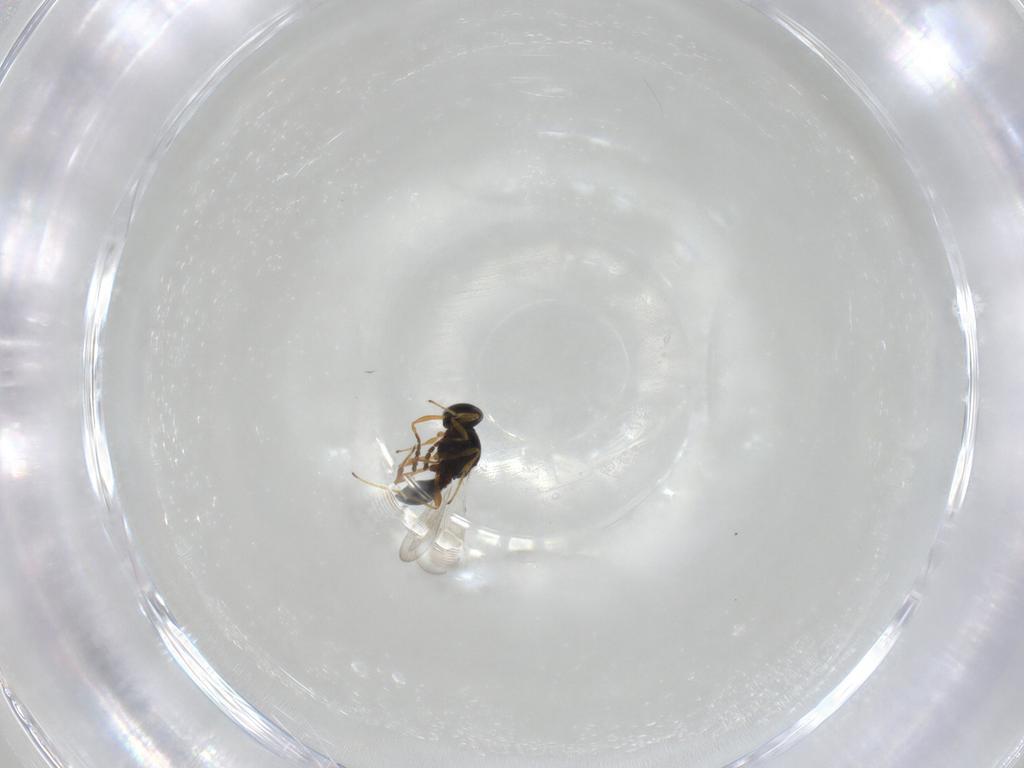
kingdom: Animalia
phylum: Arthropoda
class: Insecta
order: Hymenoptera
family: Platygastridae
